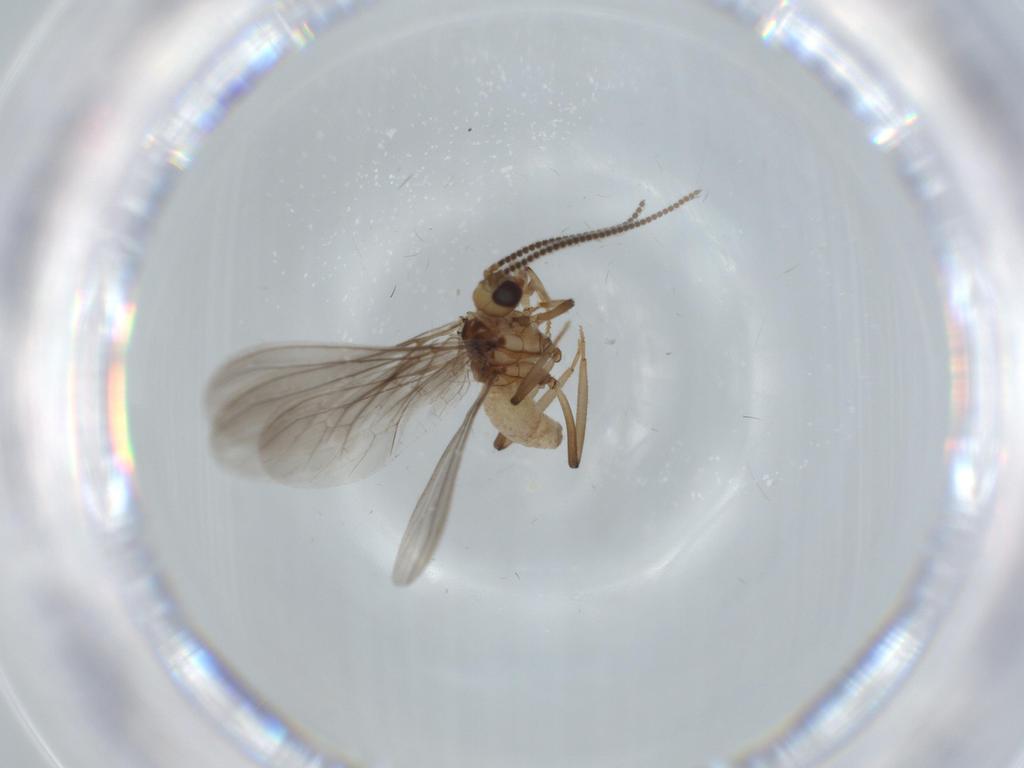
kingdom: Animalia
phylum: Arthropoda
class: Insecta
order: Neuroptera
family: Coniopterygidae
